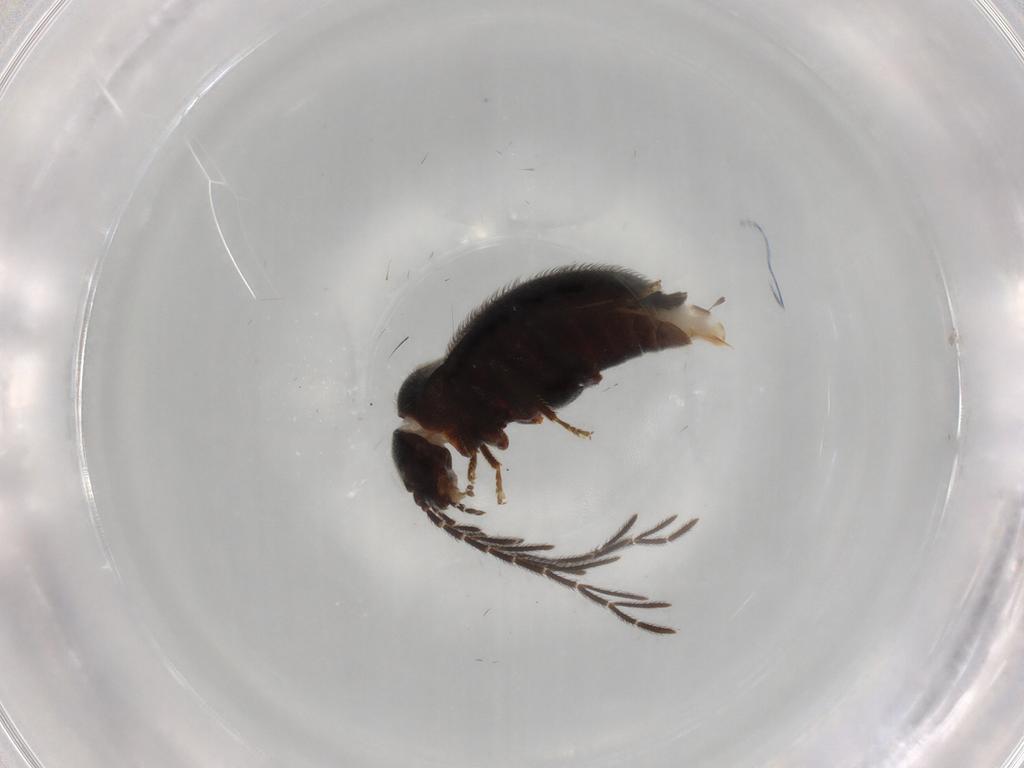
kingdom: Animalia
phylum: Arthropoda
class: Insecta
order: Coleoptera
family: Ptilodactylidae
